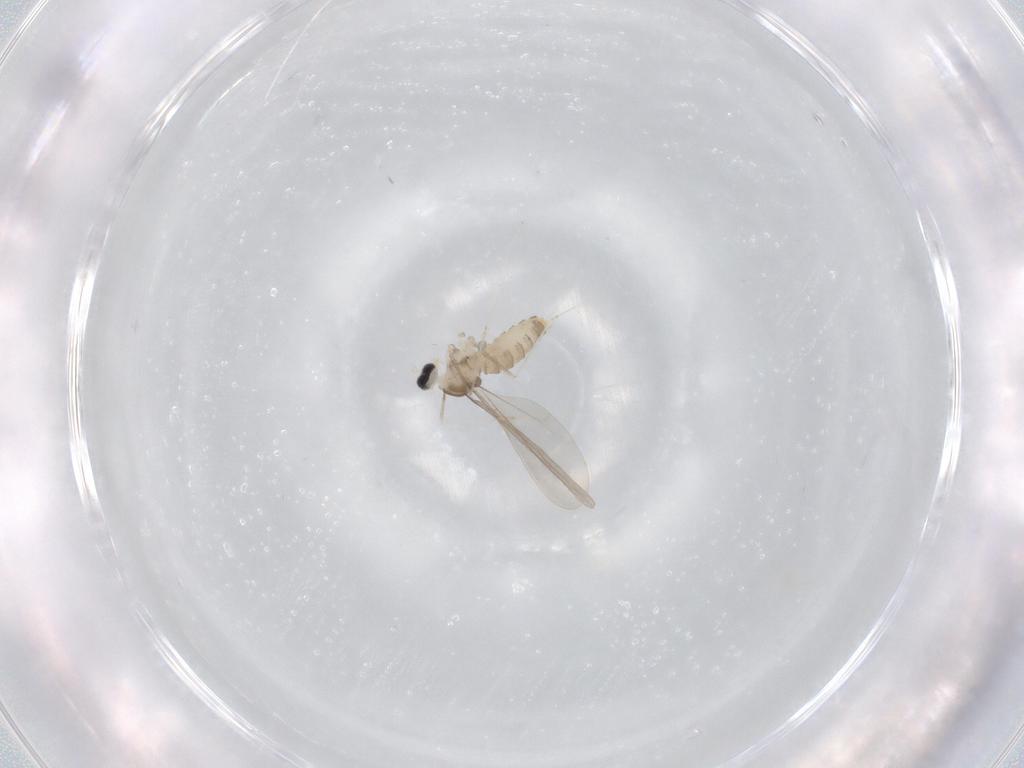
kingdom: Animalia
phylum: Arthropoda
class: Insecta
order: Diptera
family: Cecidomyiidae
